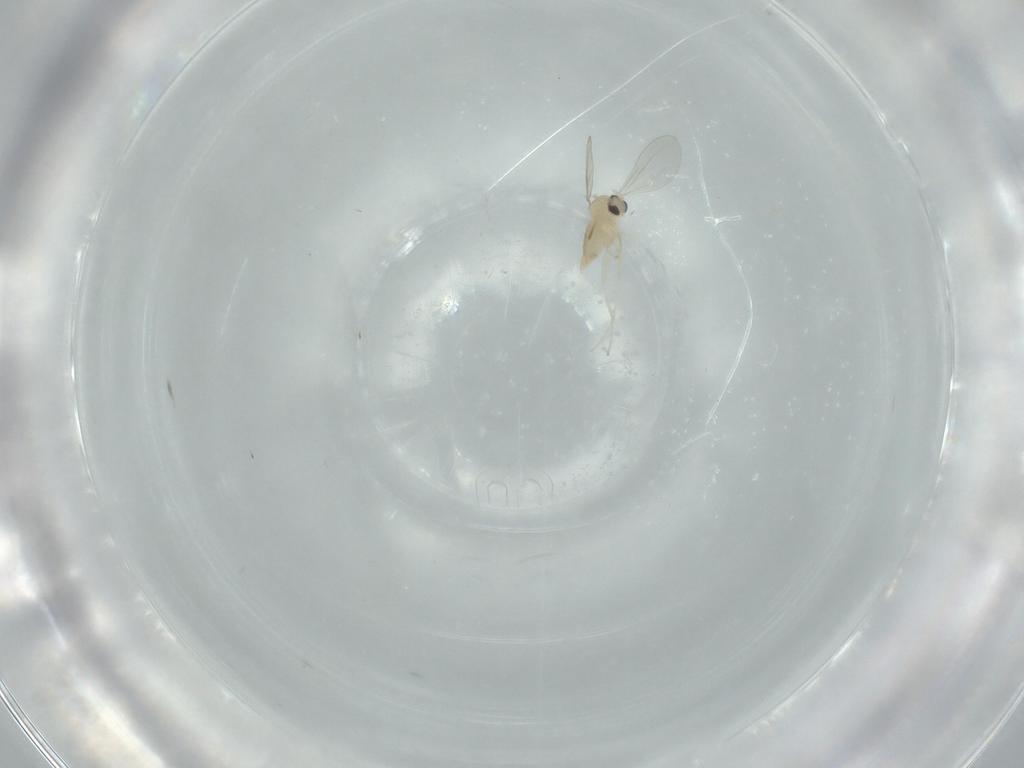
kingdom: Animalia
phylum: Arthropoda
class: Insecta
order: Diptera
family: Cecidomyiidae
